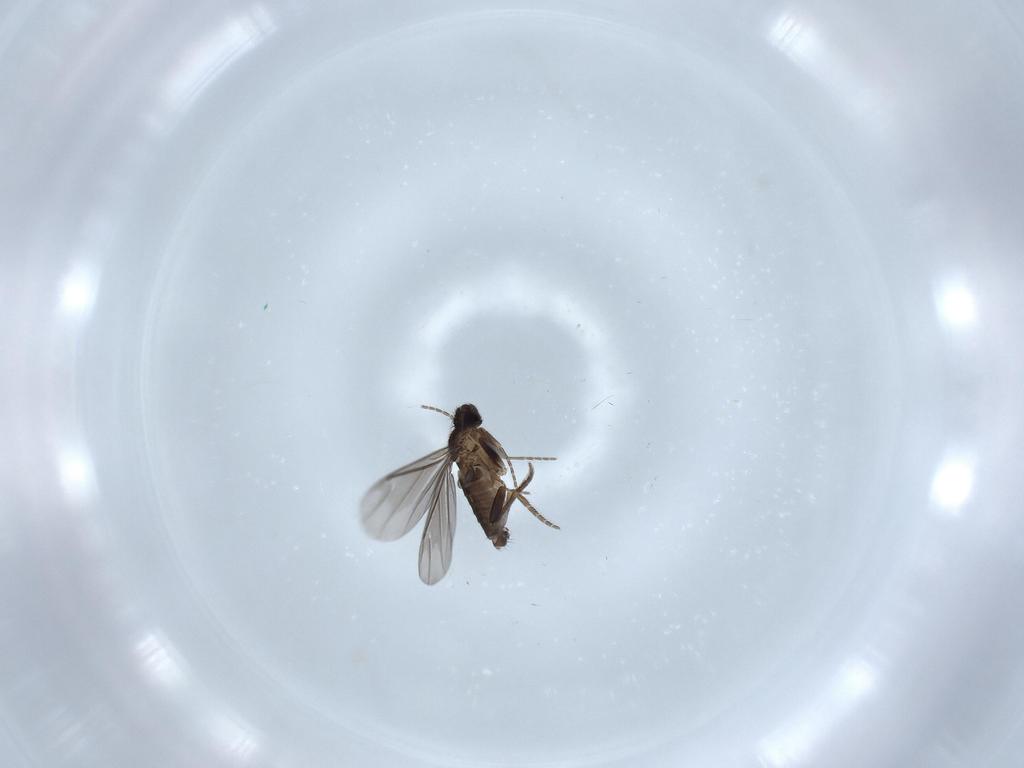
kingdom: Animalia
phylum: Arthropoda
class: Insecta
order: Diptera
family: Phoridae
